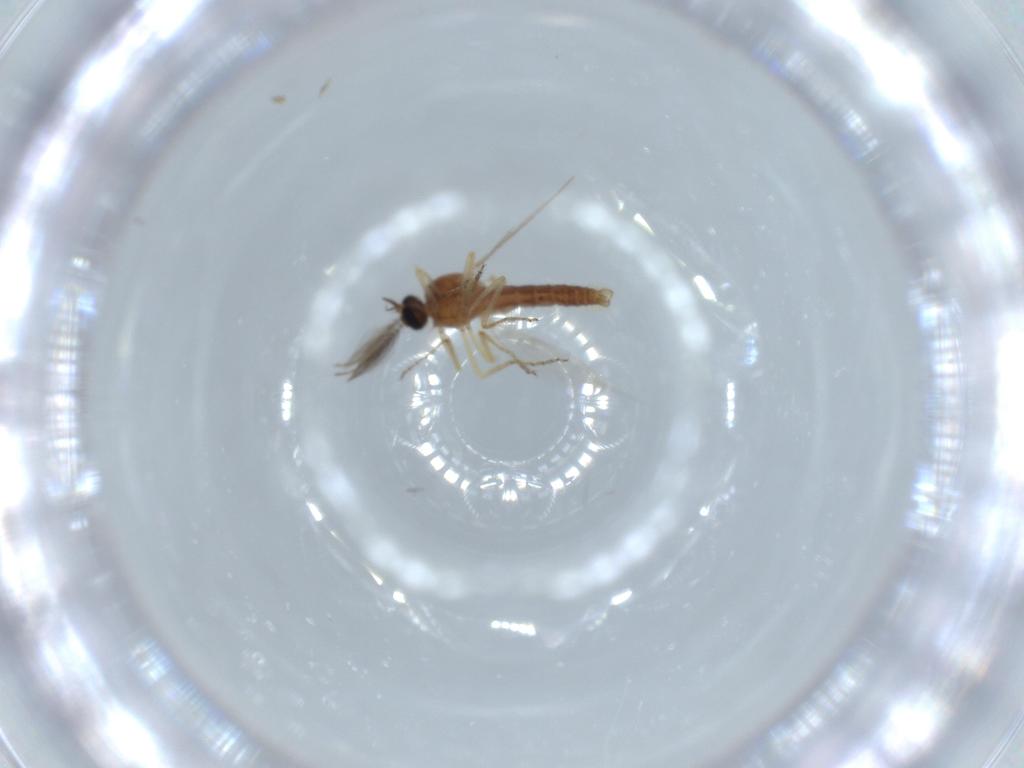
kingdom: Animalia
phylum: Arthropoda
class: Insecta
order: Diptera
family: Ceratopogonidae
